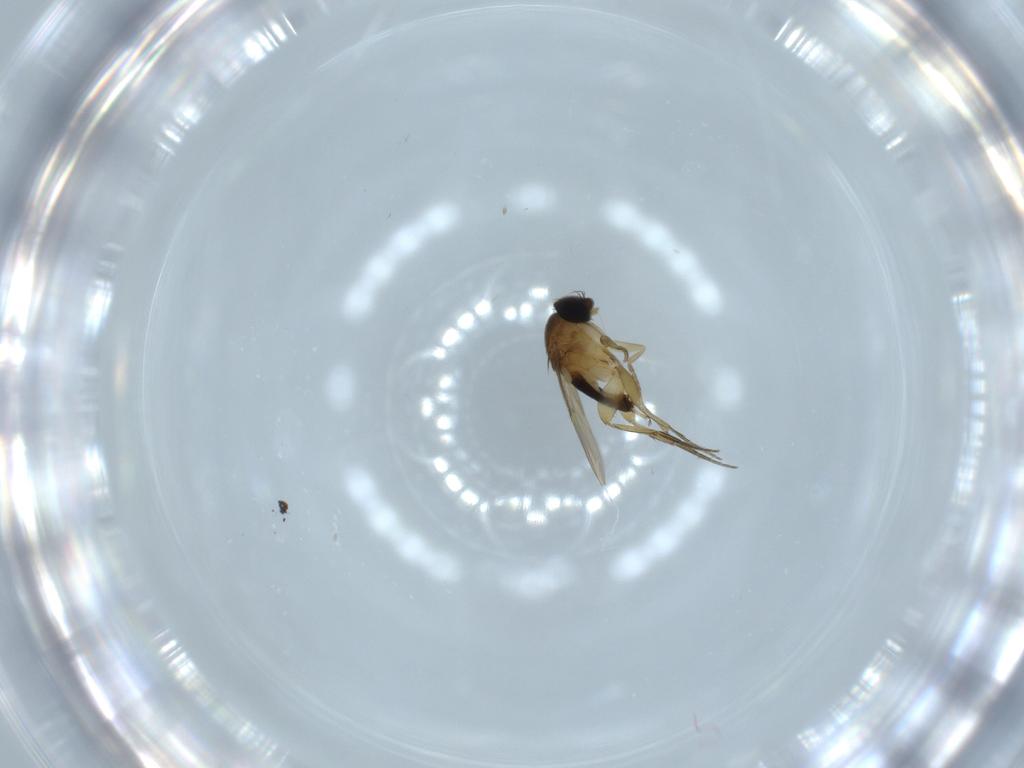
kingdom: Animalia
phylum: Arthropoda
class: Insecta
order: Diptera
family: Phoridae
